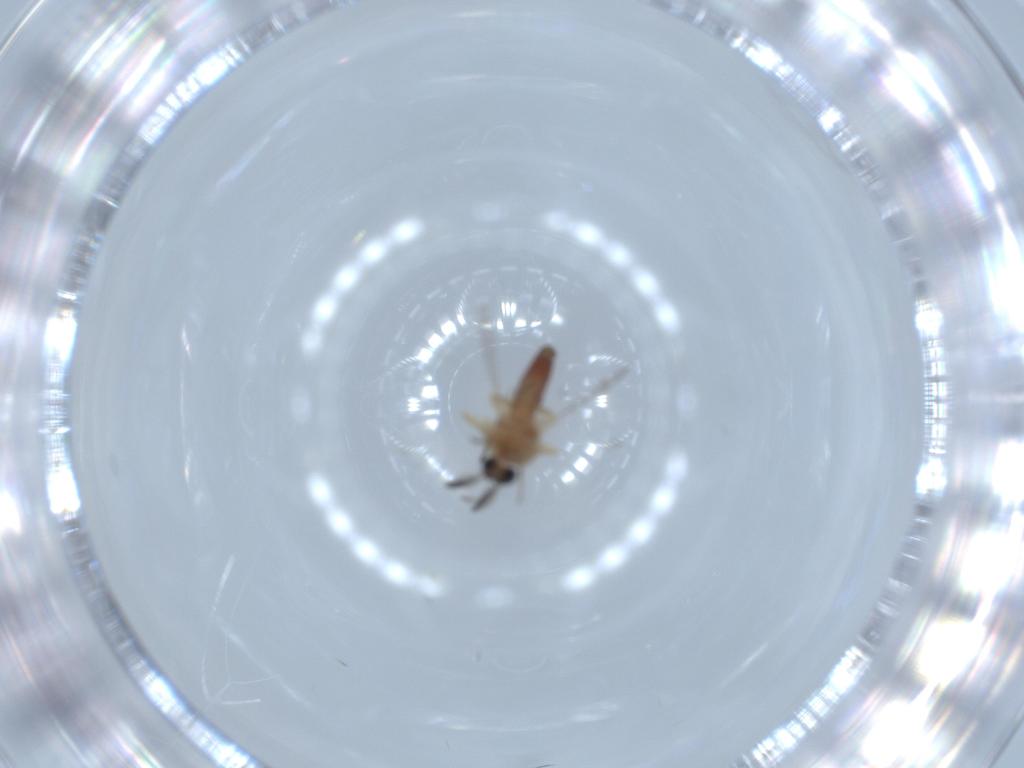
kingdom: Animalia
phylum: Arthropoda
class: Insecta
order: Diptera
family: Ceratopogonidae
